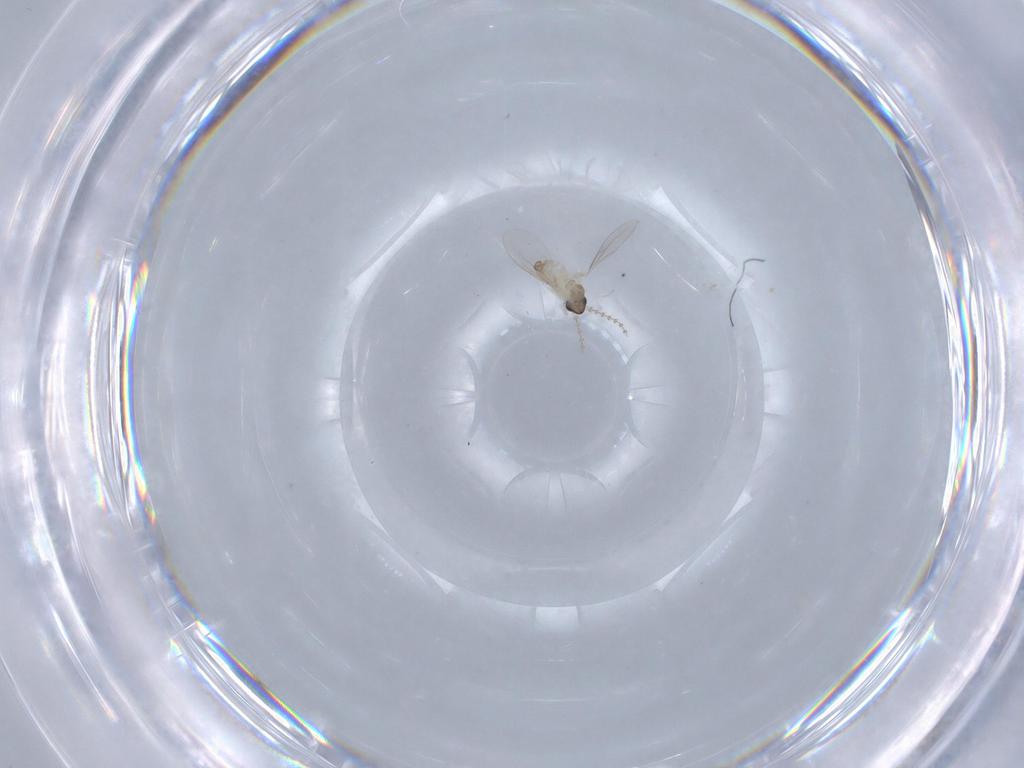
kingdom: Animalia
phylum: Arthropoda
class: Insecta
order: Diptera
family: Cecidomyiidae
